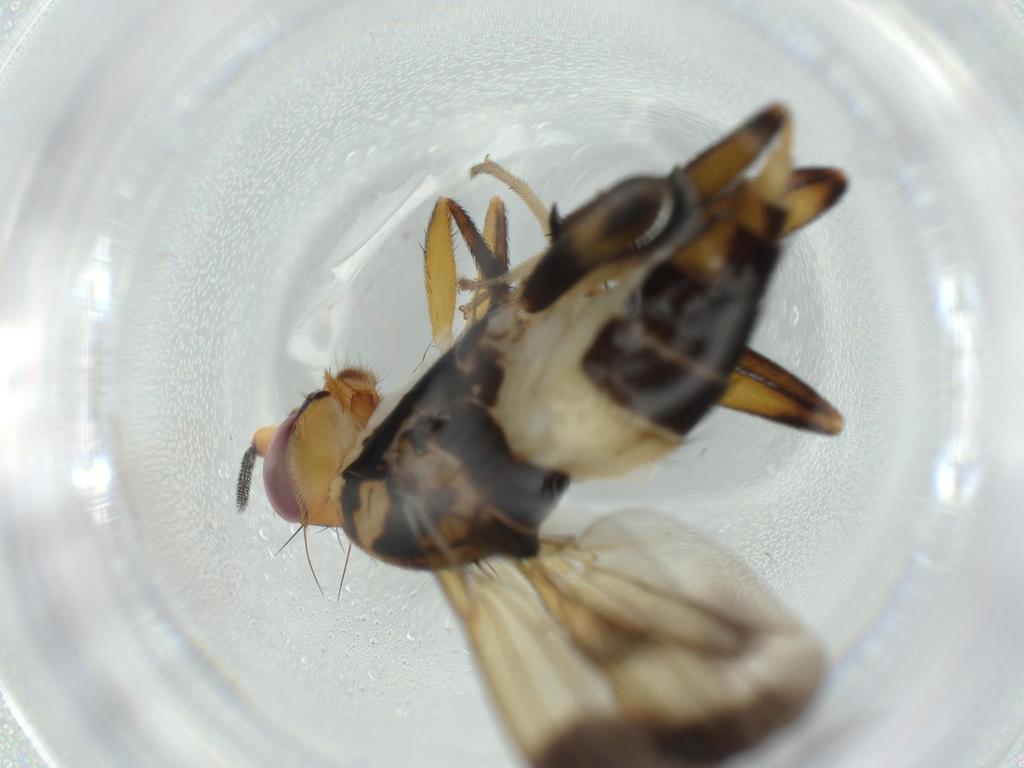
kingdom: Animalia
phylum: Arthropoda
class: Insecta
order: Diptera
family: Clusiidae
